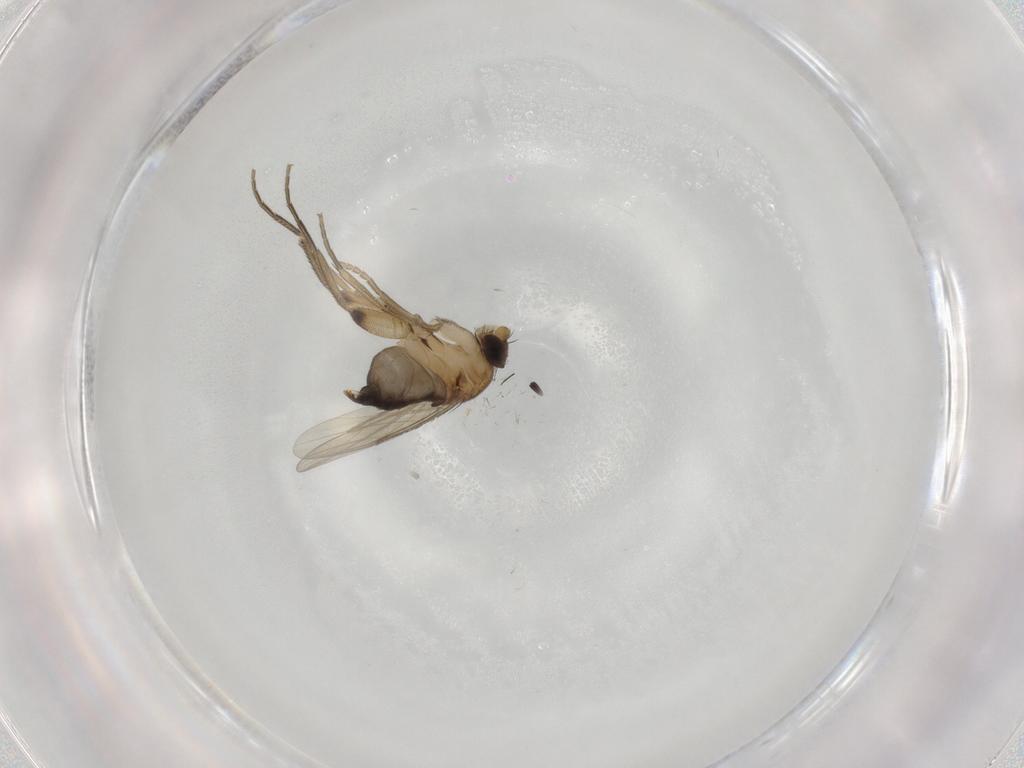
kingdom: Animalia
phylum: Arthropoda
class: Insecta
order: Diptera
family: Phoridae
